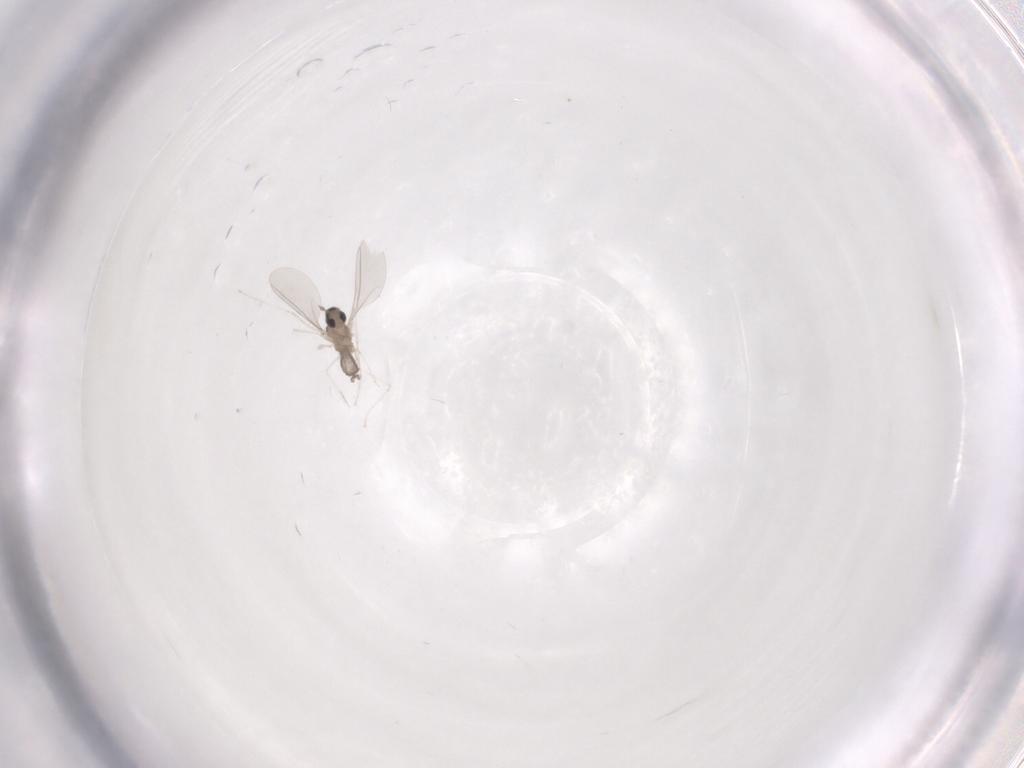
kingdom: Animalia
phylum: Arthropoda
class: Insecta
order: Diptera
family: Cecidomyiidae
